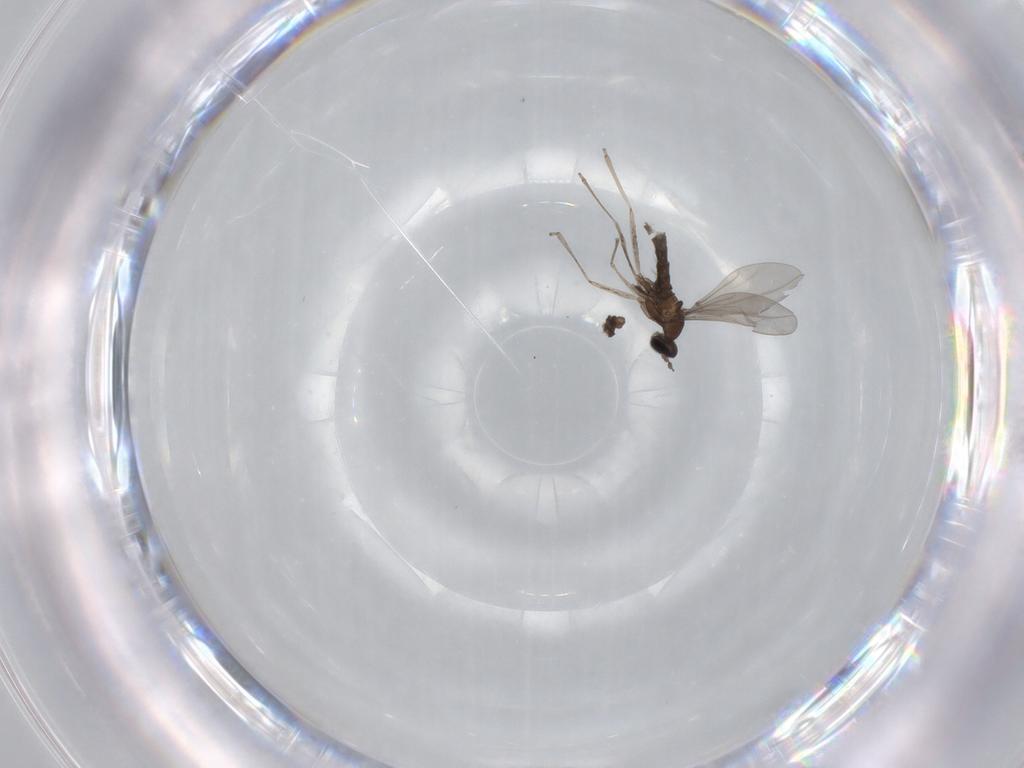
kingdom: Animalia
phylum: Arthropoda
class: Insecta
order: Diptera
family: Cecidomyiidae
